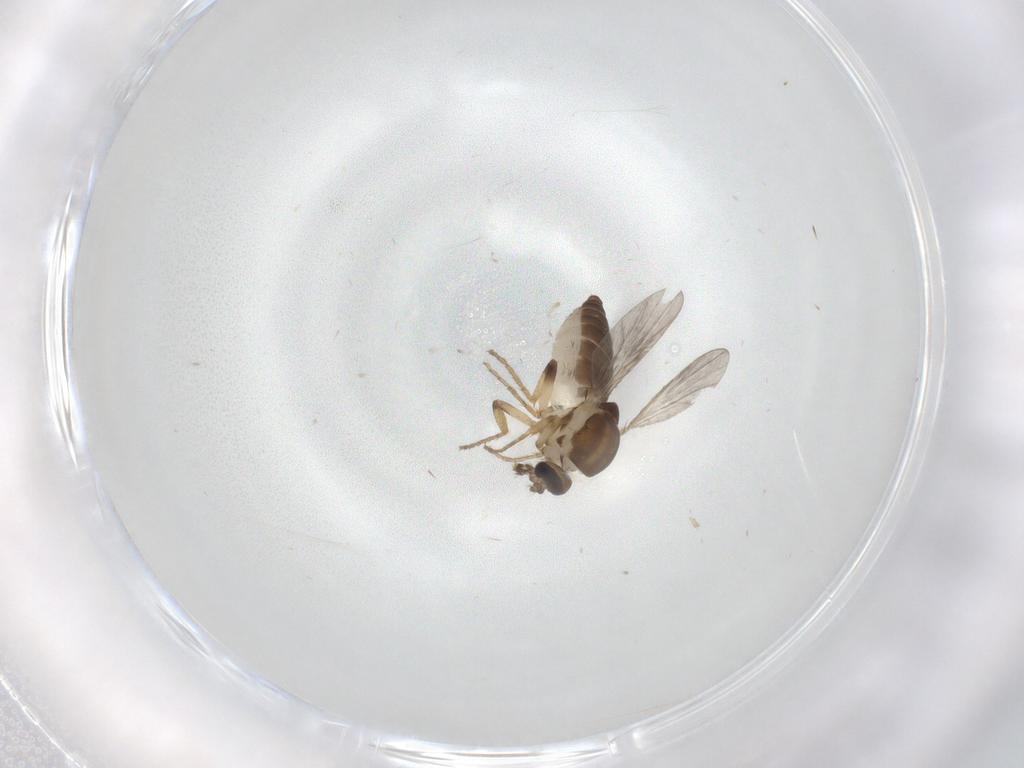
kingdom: Animalia
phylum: Arthropoda
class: Insecta
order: Diptera
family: Ceratopogonidae
